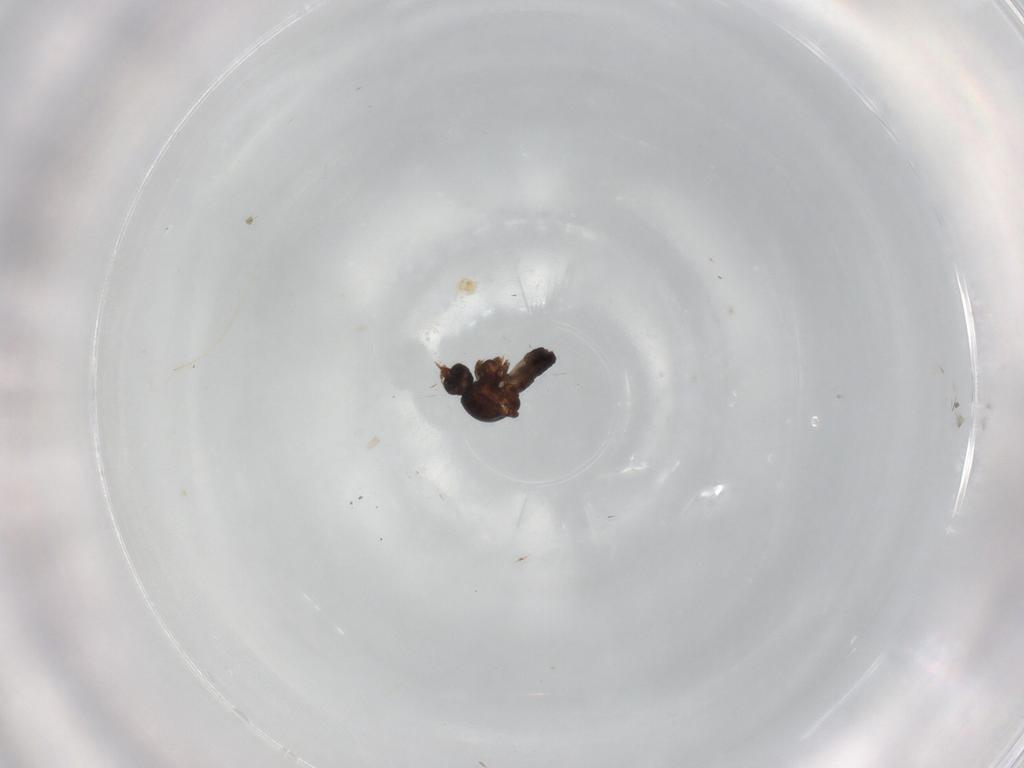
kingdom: Animalia
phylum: Arthropoda
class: Insecta
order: Diptera
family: Ceratopogonidae
